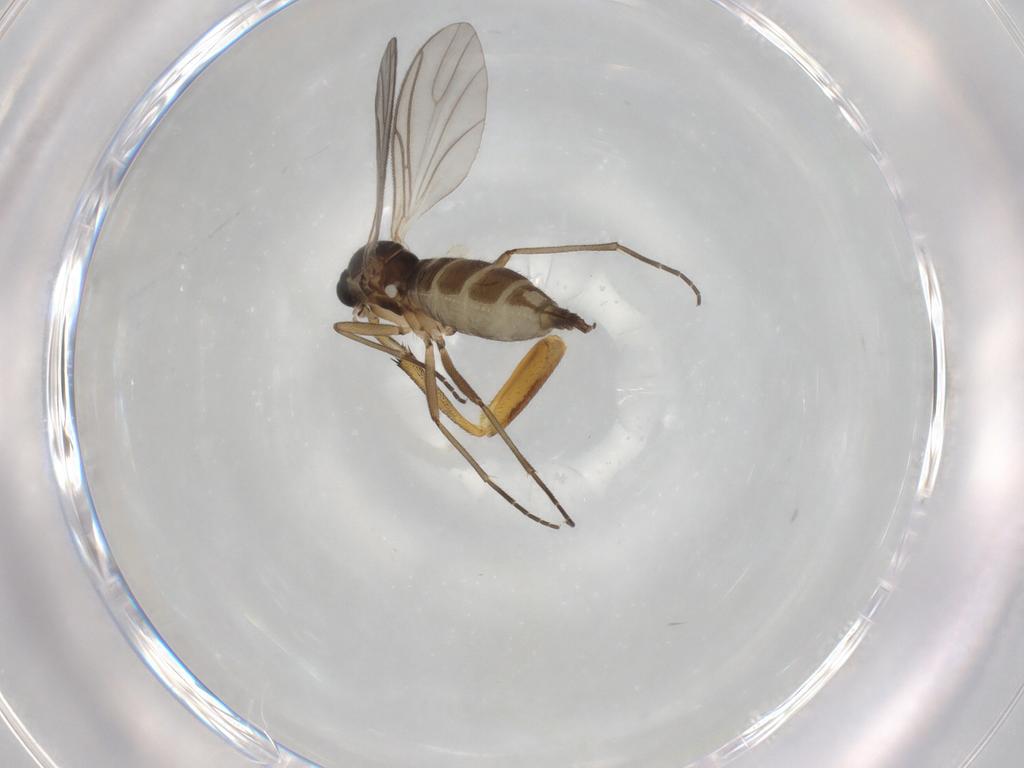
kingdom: Animalia
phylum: Arthropoda
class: Insecta
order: Diptera
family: Platypezidae
